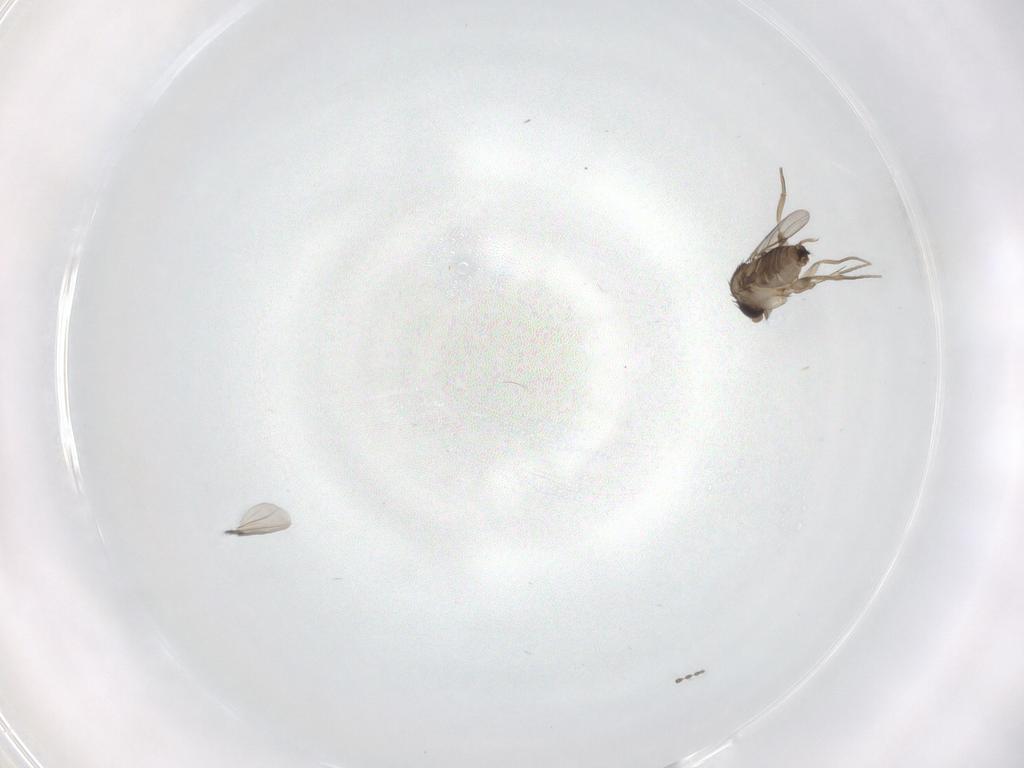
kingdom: Animalia
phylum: Arthropoda
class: Insecta
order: Diptera
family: Phoridae
